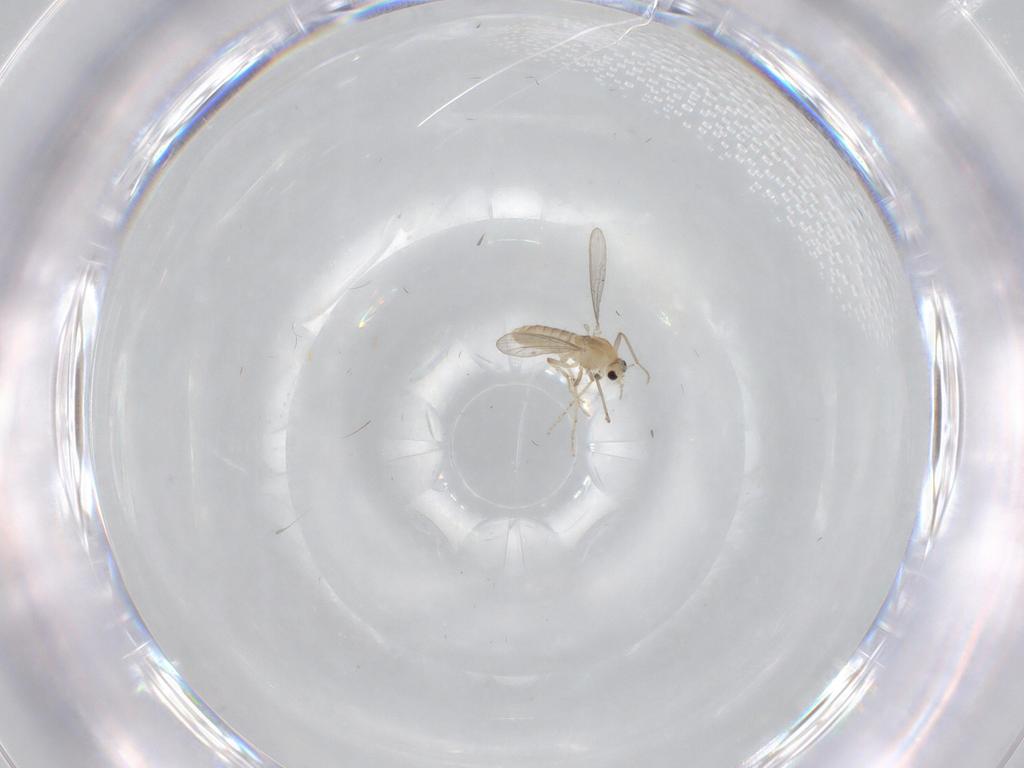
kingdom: Animalia
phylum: Arthropoda
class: Insecta
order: Diptera
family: Chironomidae
